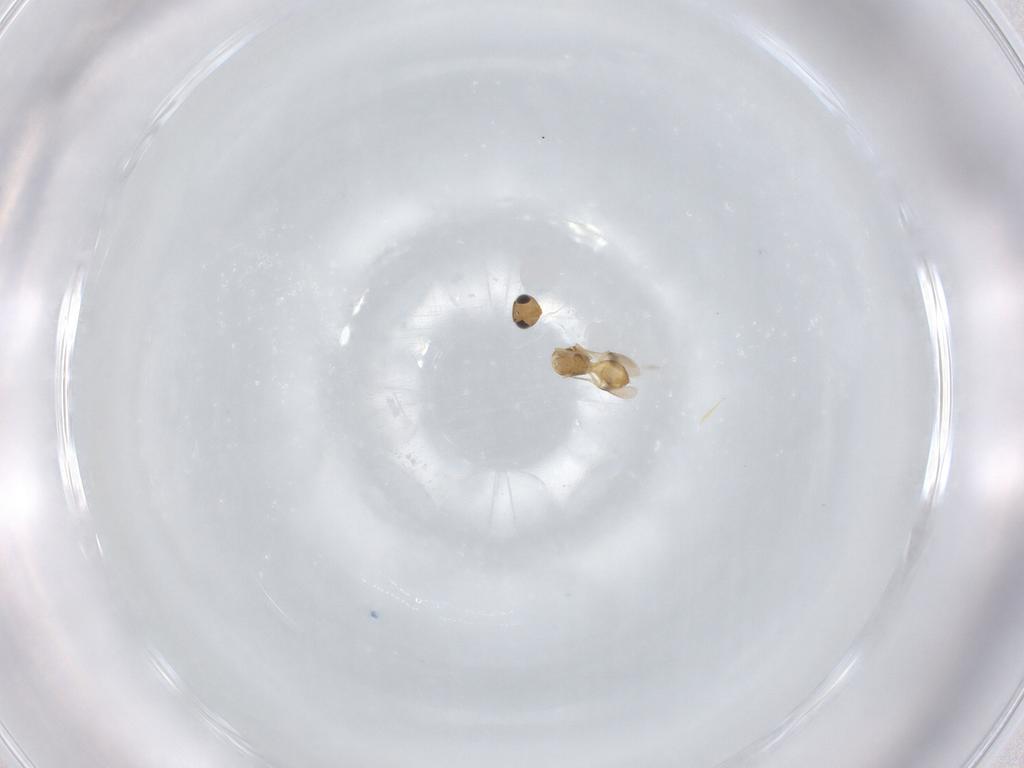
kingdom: Animalia
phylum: Arthropoda
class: Insecta
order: Hymenoptera
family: Scelionidae
